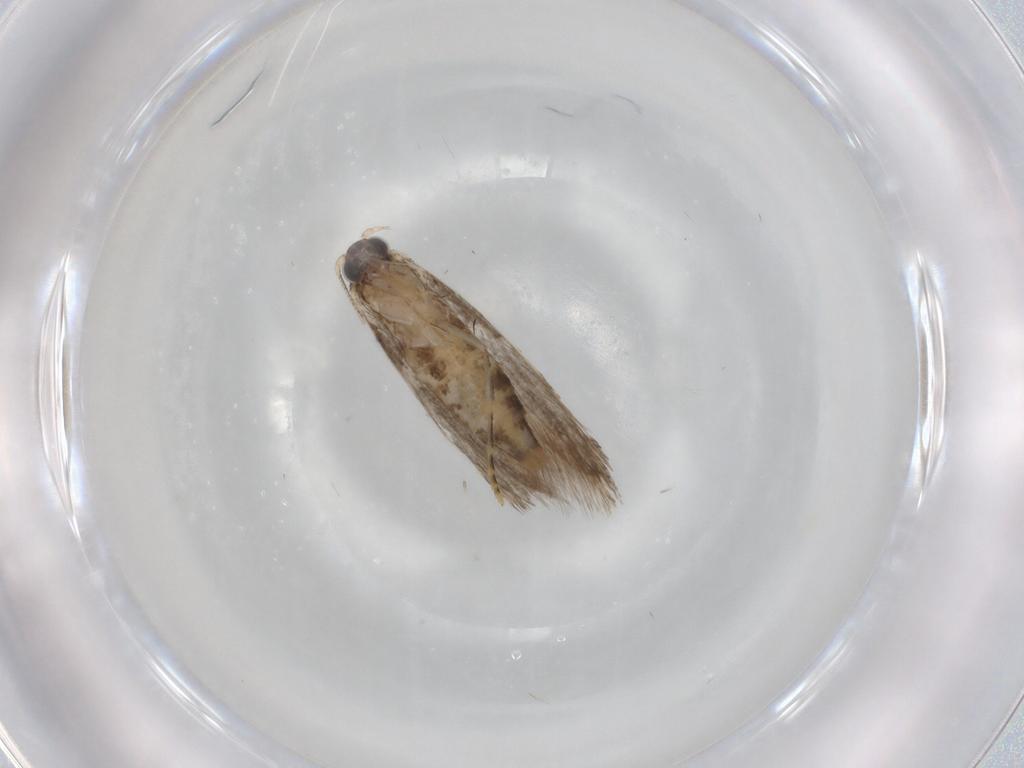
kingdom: Animalia
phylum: Arthropoda
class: Insecta
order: Lepidoptera
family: Tineidae
